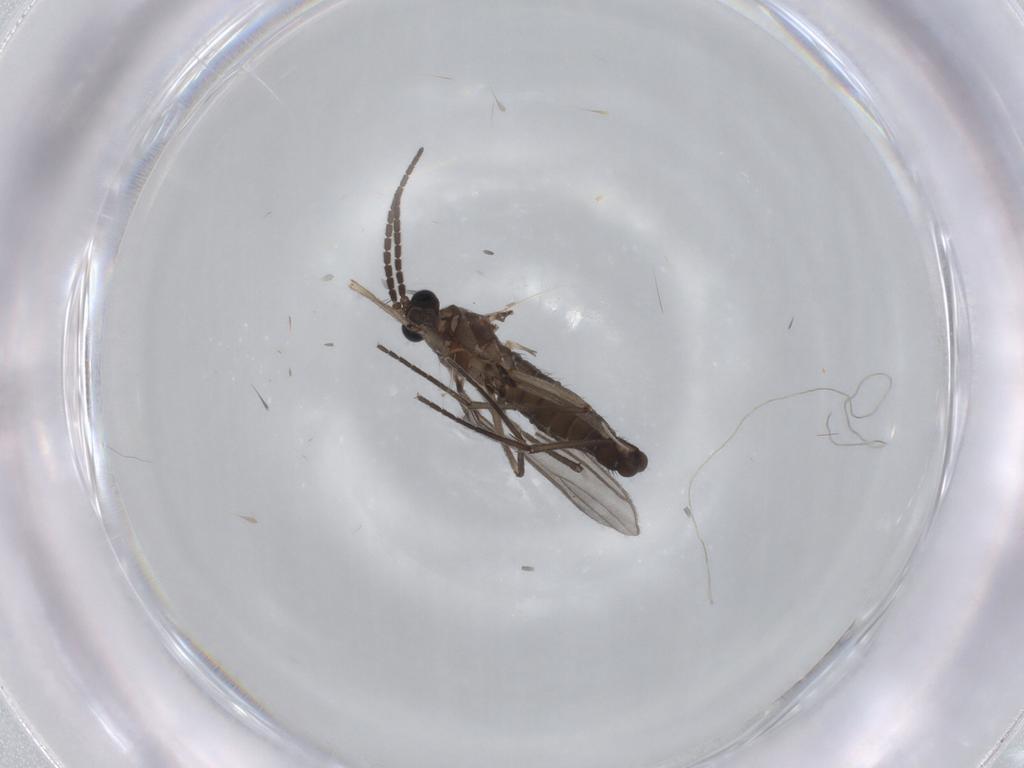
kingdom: Animalia
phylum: Arthropoda
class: Insecta
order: Diptera
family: Sciaridae
